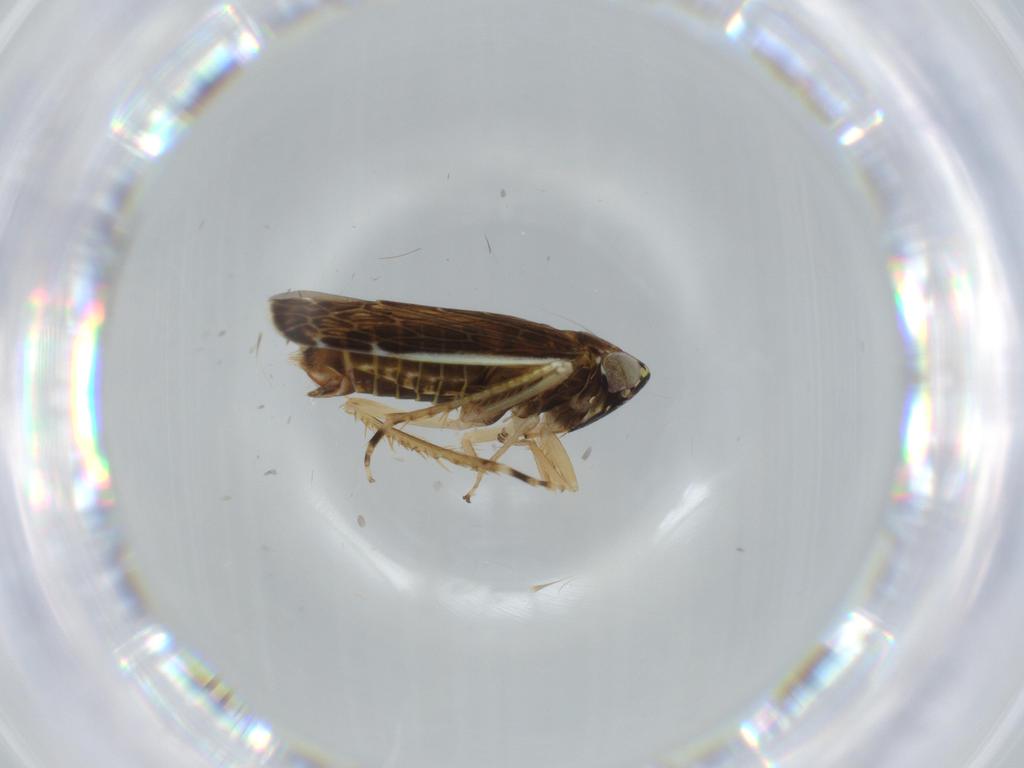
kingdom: Animalia
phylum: Arthropoda
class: Insecta
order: Hemiptera
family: Cicadellidae
